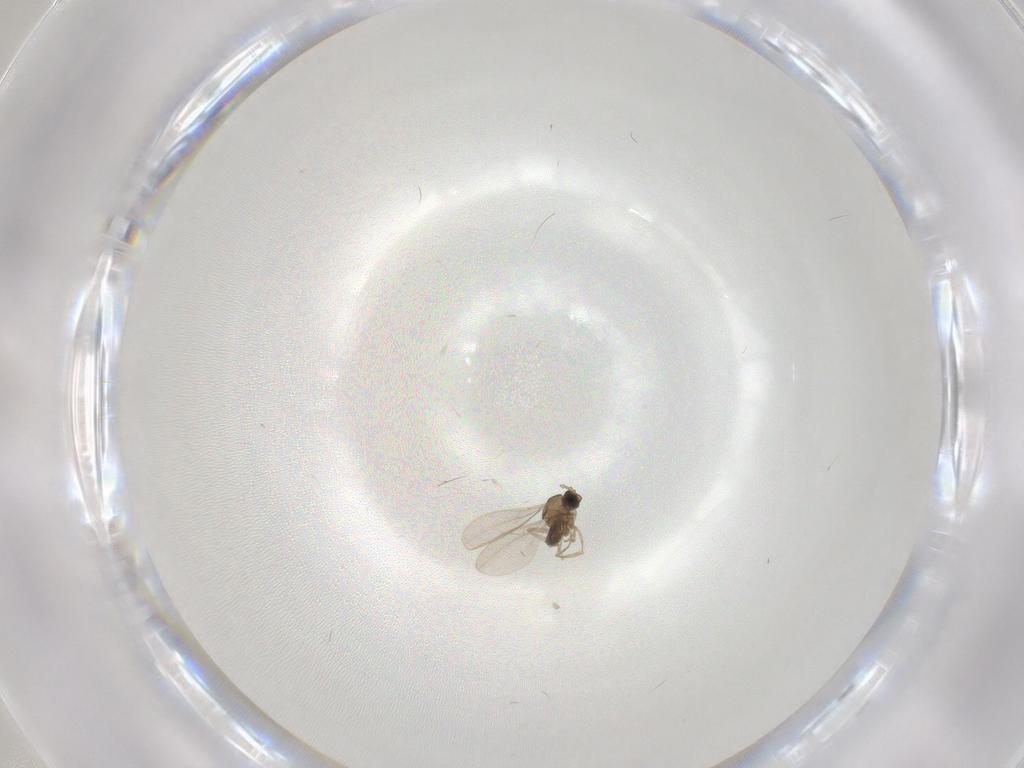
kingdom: Animalia
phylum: Arthropoda
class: Insecta
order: Diptera
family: Cecidomyiidae
